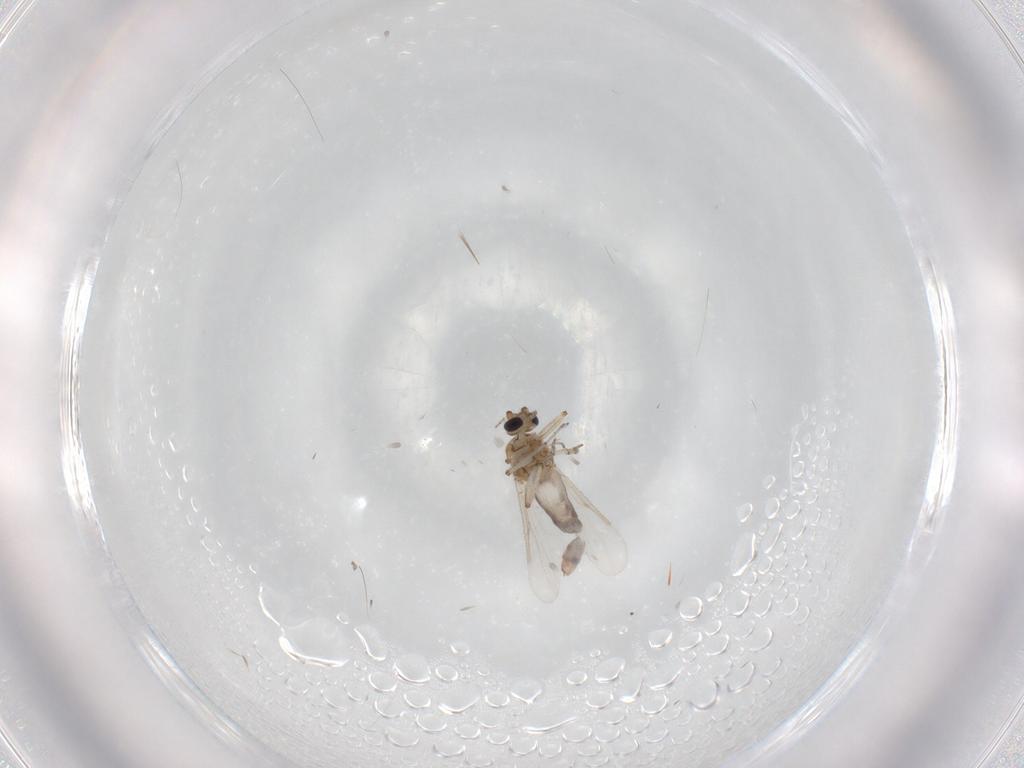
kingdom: Animalia
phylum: Arthropoda
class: Insecta
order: Diptera
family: Ceratopogonidae
